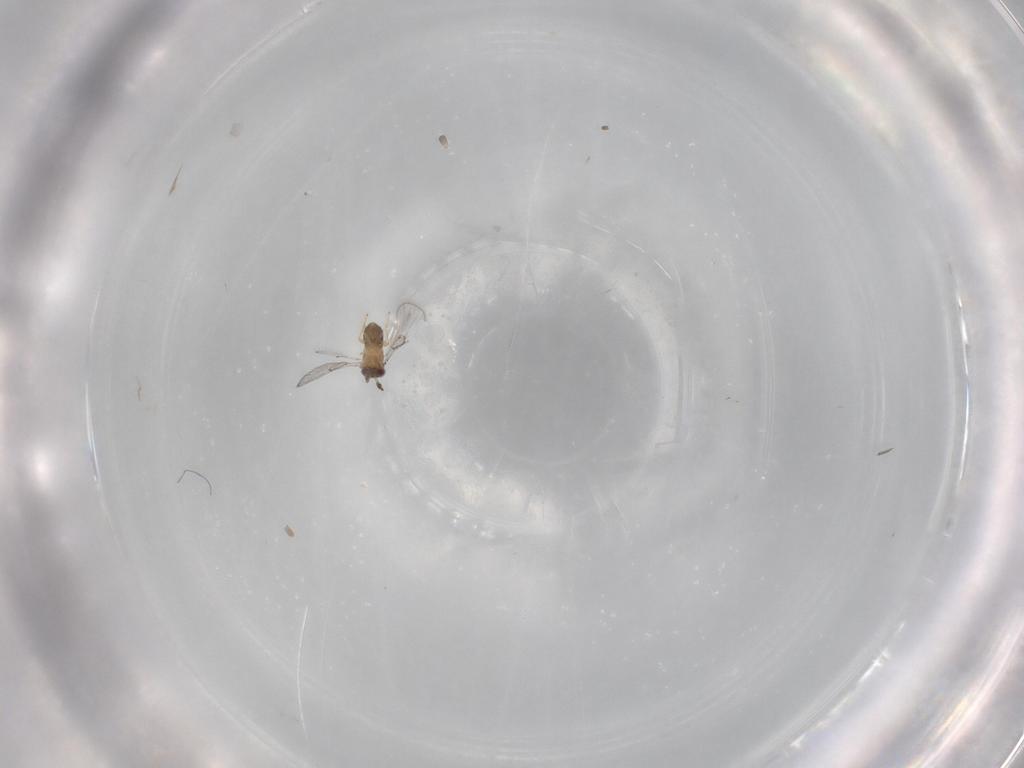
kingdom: Animalia
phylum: Arthropoda
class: Insecta
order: Hymenoptera
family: Trichogrammatidae
